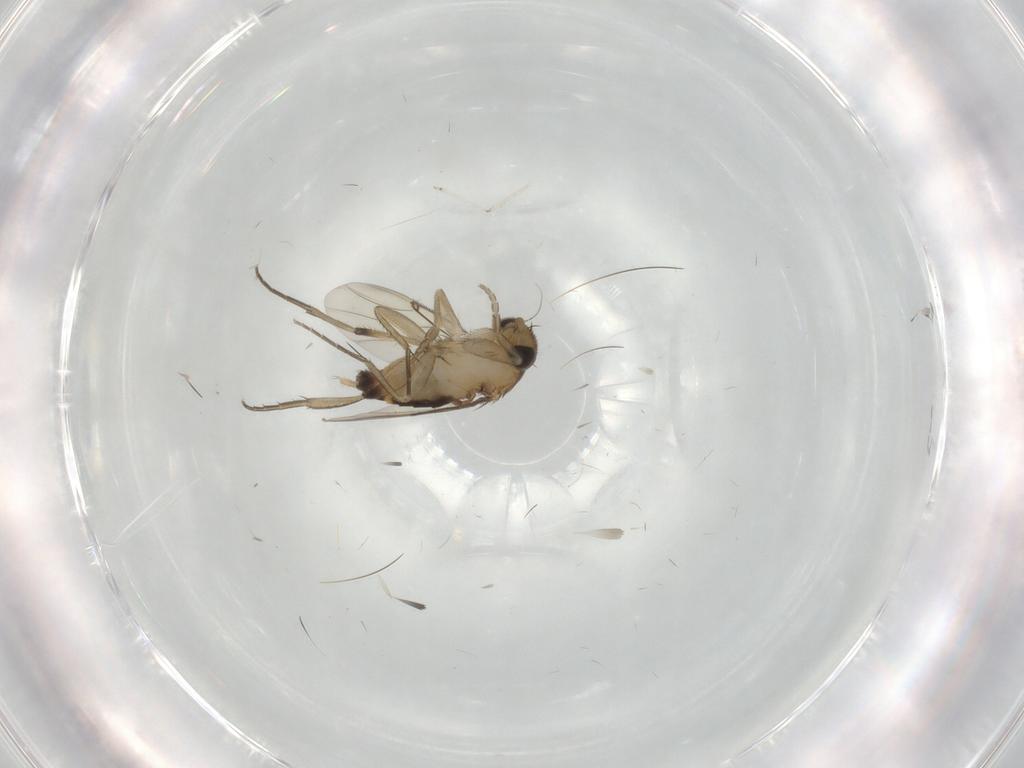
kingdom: Animalia
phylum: Arthropoda
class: Insecta
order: Diptera
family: Phoridae
